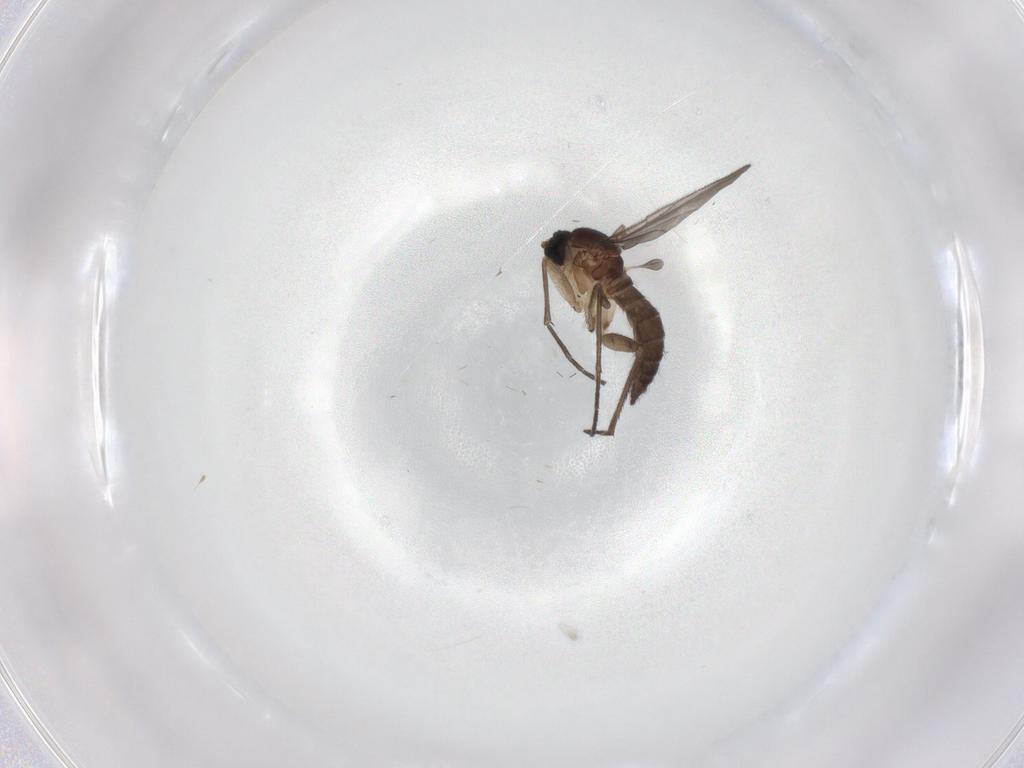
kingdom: Animalia
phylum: Arthropoda
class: Insecta
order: Diptera
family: Sciaridae
